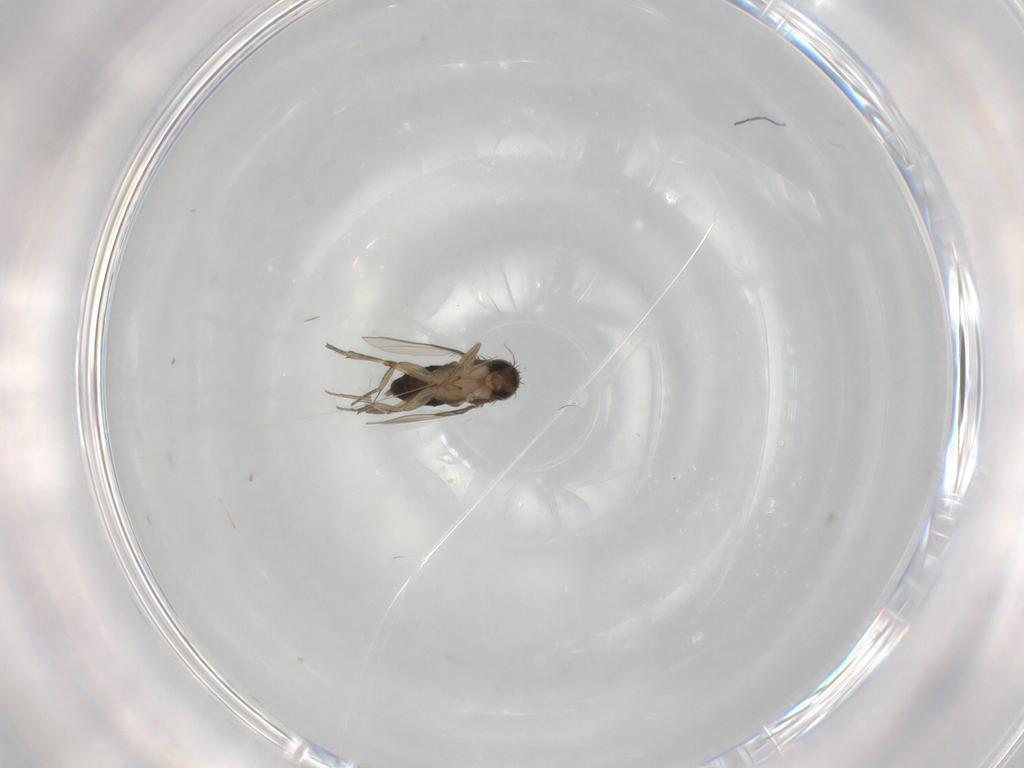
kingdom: Animalia
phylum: Arthropoda
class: Insecta
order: Diptera
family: Phoridae
